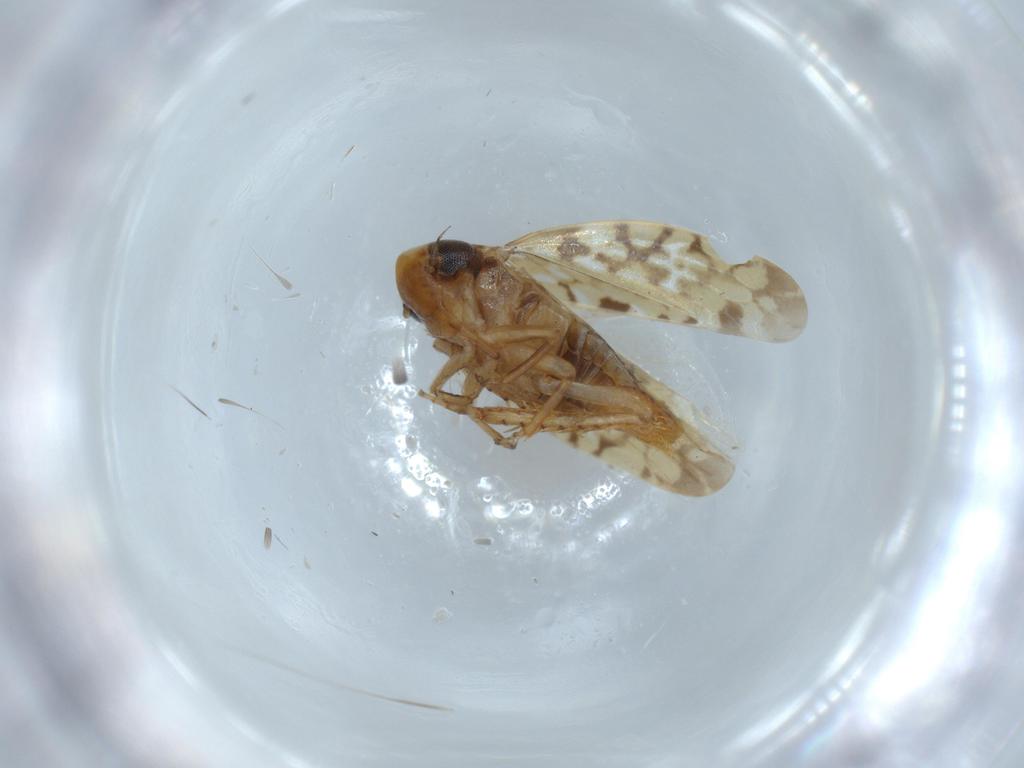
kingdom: Animalia
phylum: Arthropoda
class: Insecta
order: Hemiptera
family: Cicadellidae
